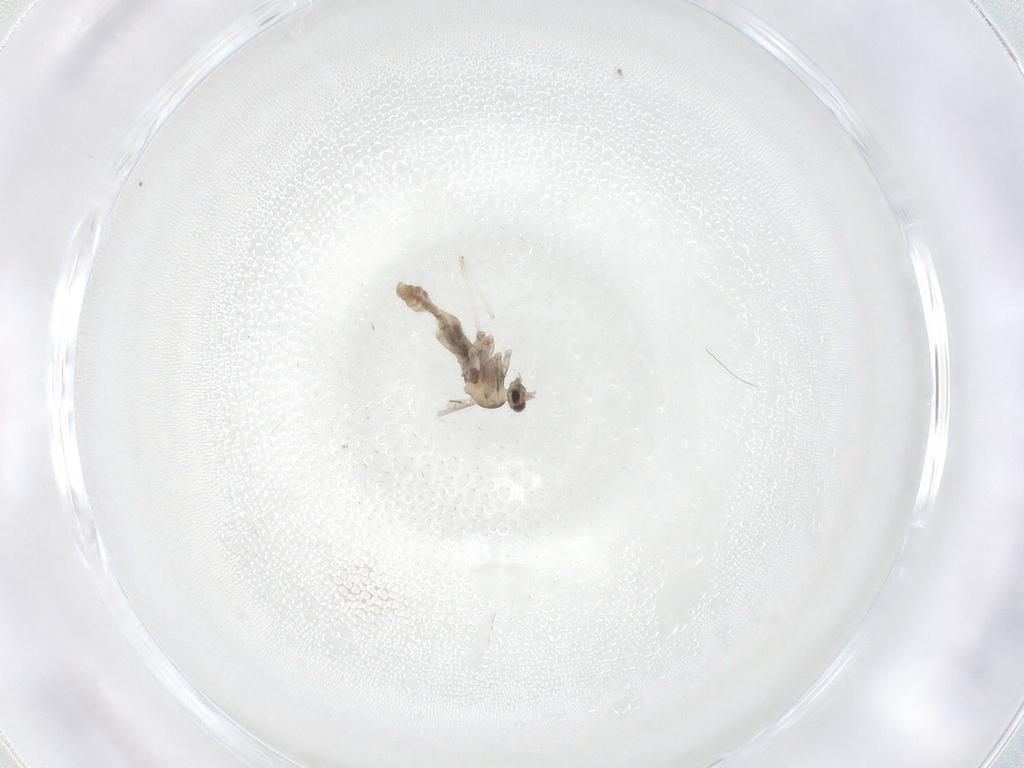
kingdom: Animalia
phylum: Arthropoda
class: Insecta
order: Diptera
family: Cecidomyiidae
